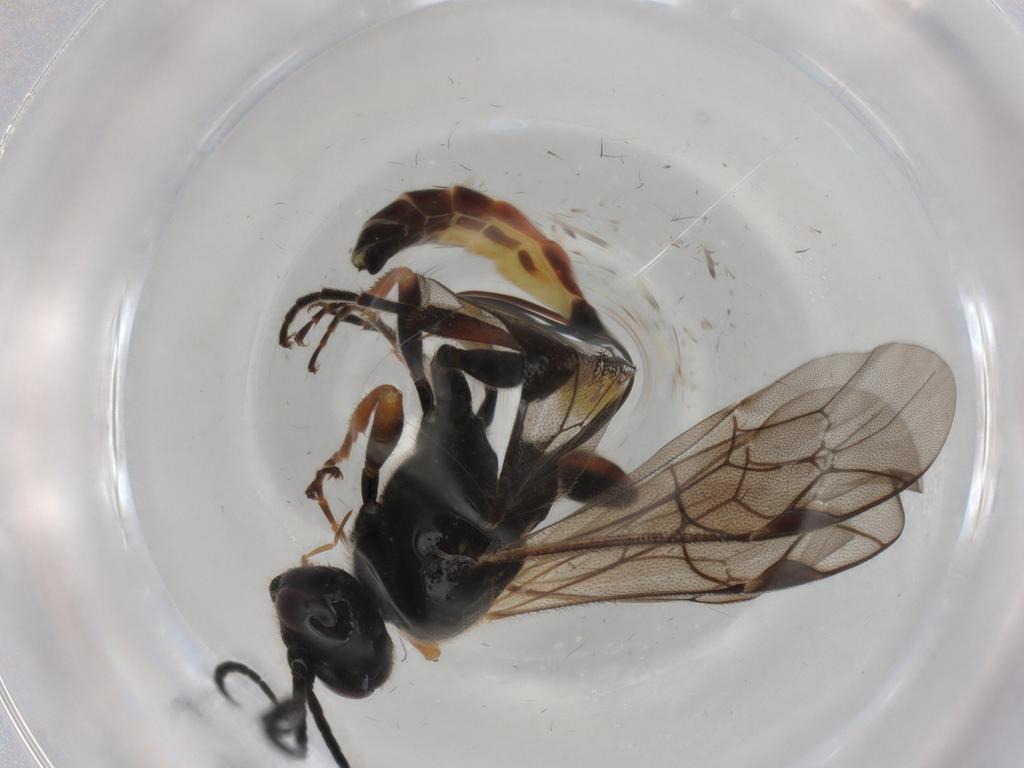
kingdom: Animalia
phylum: Arthropoda
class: Insecta
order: Hymenoptera
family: Ichneumonidae
